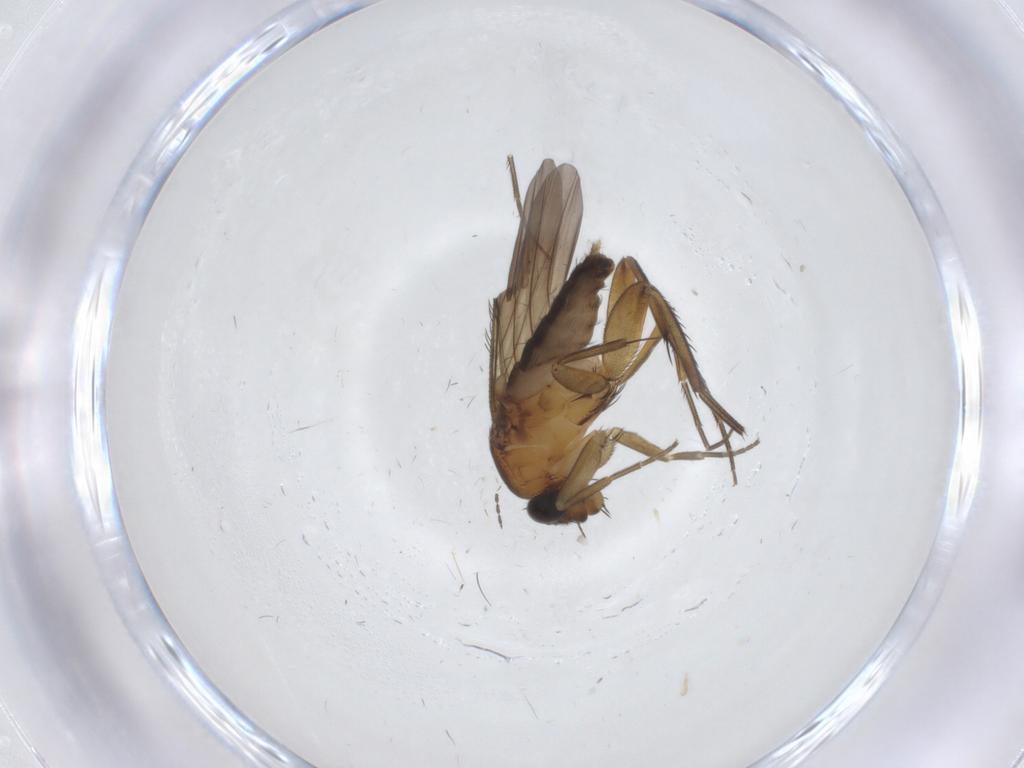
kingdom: Animalia
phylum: Arthropoda
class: Insecta
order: Diptera
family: Phoridae
